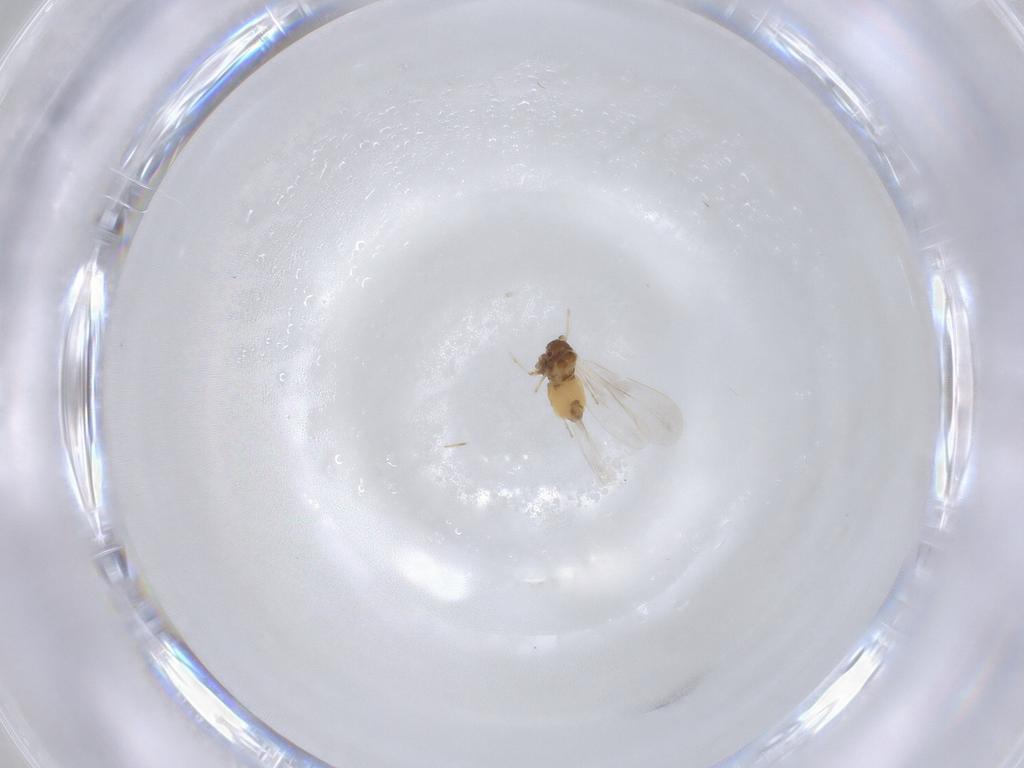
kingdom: Animalia
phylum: Arthropoda
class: Insecta
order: Hemiptera
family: Aleyrodidae
